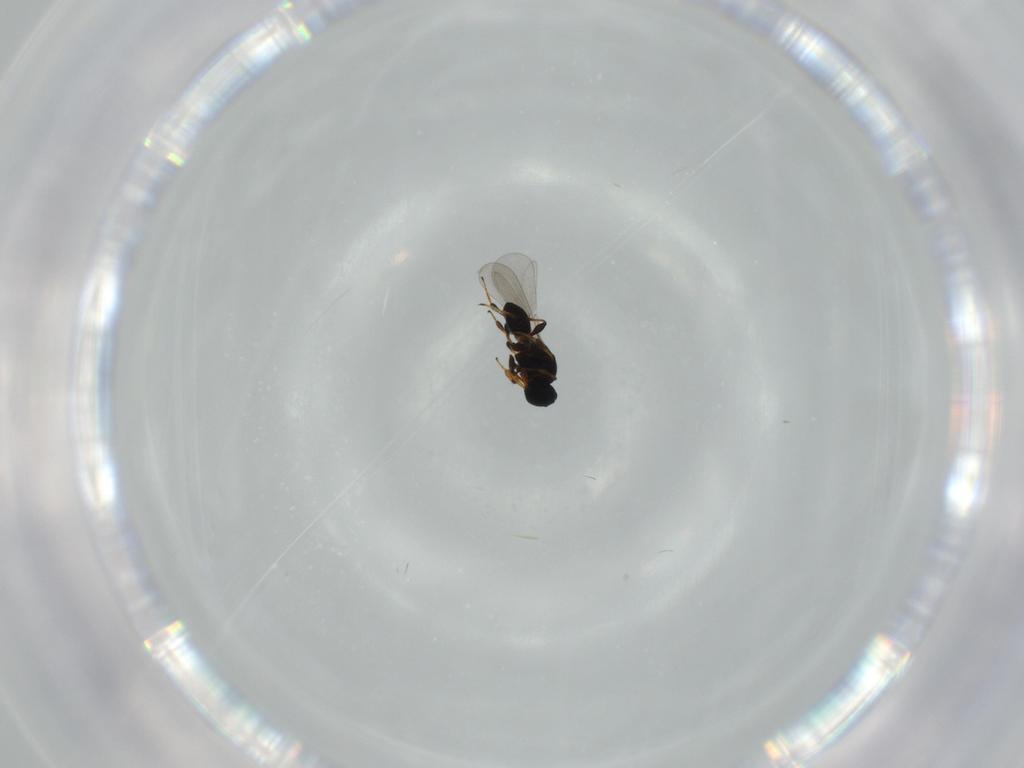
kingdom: Animalia
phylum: Arthropoda
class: Insecta
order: Hymenoptera
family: Platygastridae
